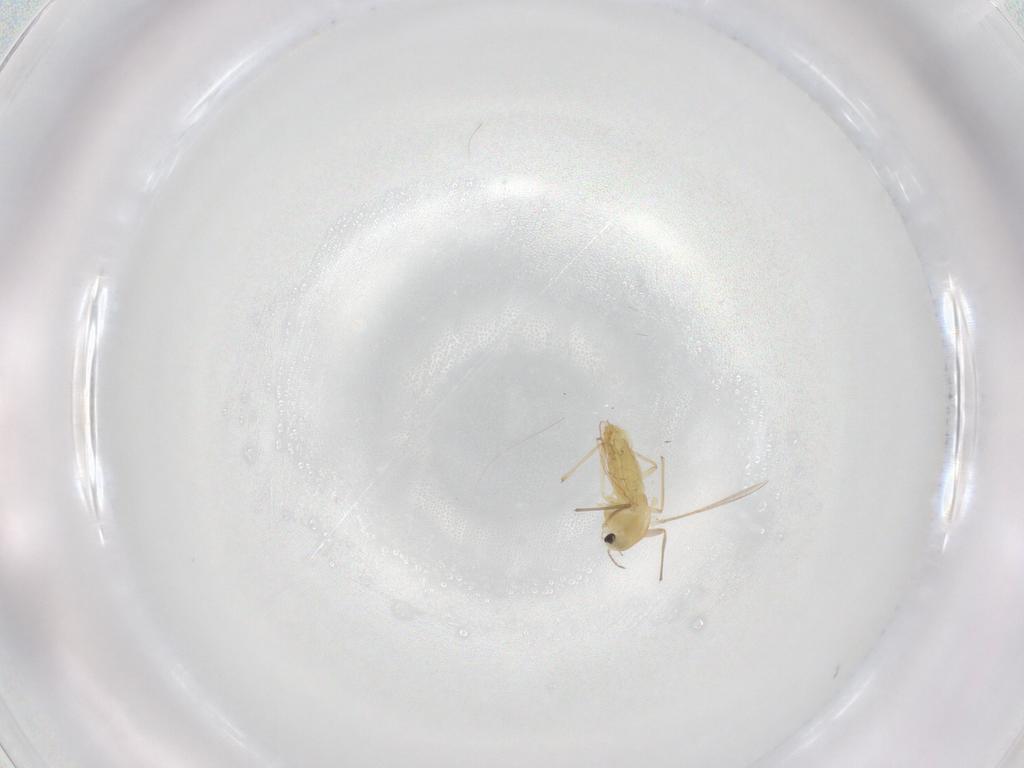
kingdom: Animalia
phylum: Arthropoda
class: Insecta
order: Diptera
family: Chironomidae
